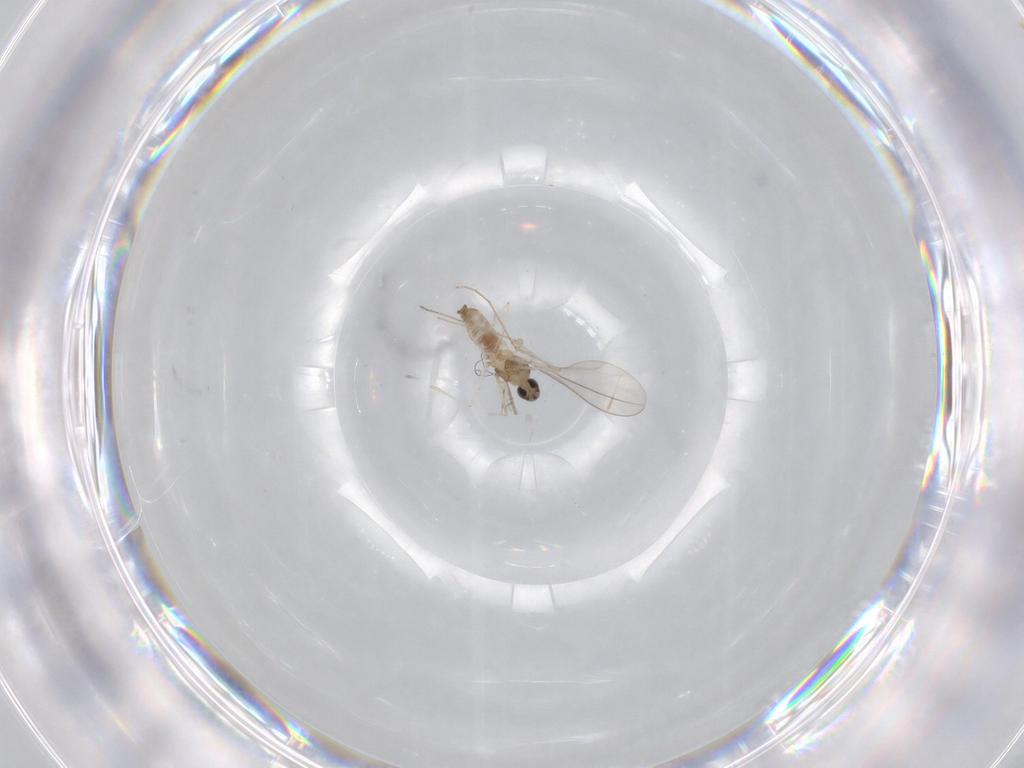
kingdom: Animalia
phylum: Arthropoda
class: Insecta
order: Diptera
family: Cecidomyiidae
